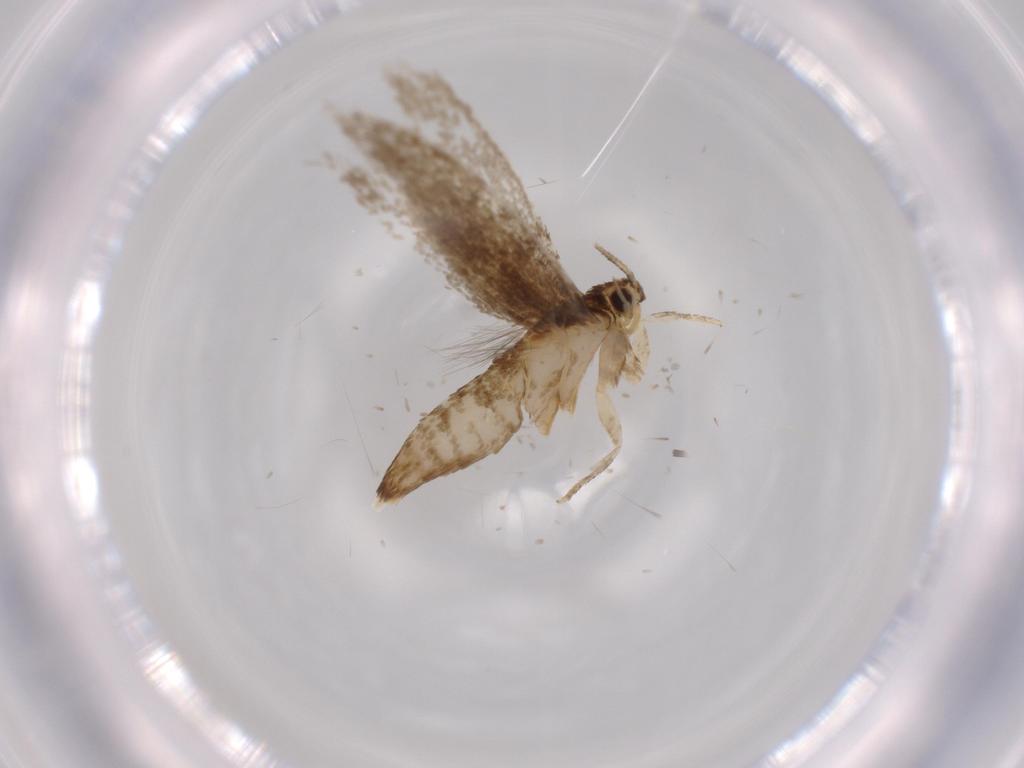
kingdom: Animalia
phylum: Arthropoda
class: Insecta
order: Lepidoptera
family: Tineidae
